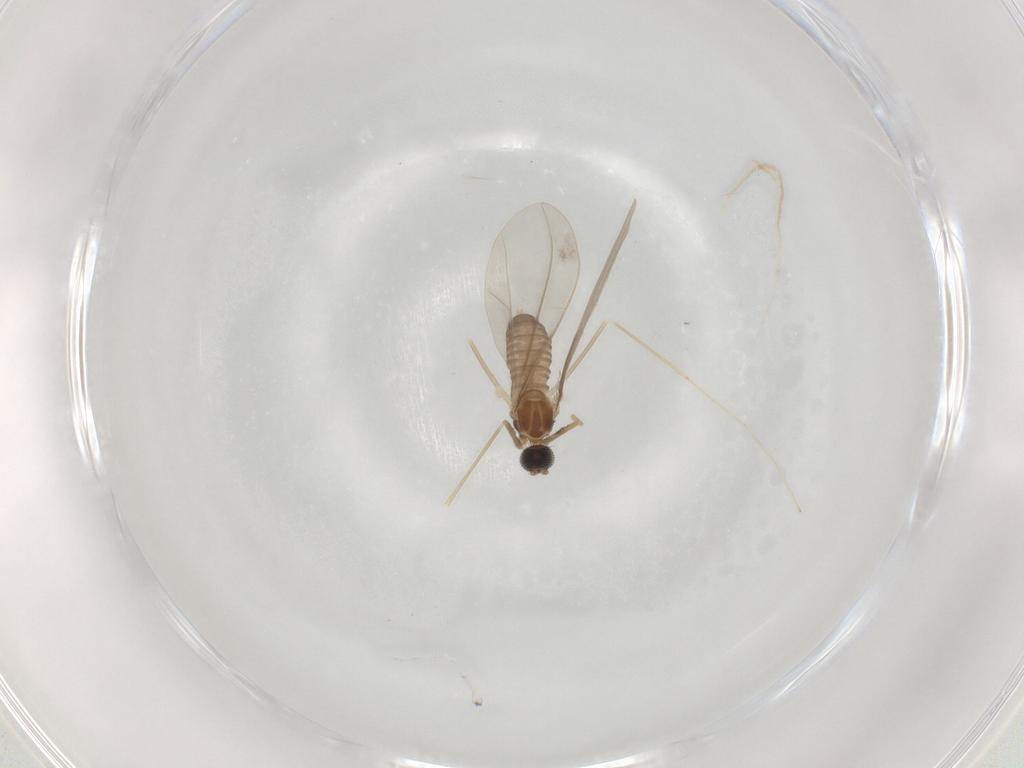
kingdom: Animalia
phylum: Arthropoda
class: Insecta
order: Diptera
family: Cecidomyiidae
